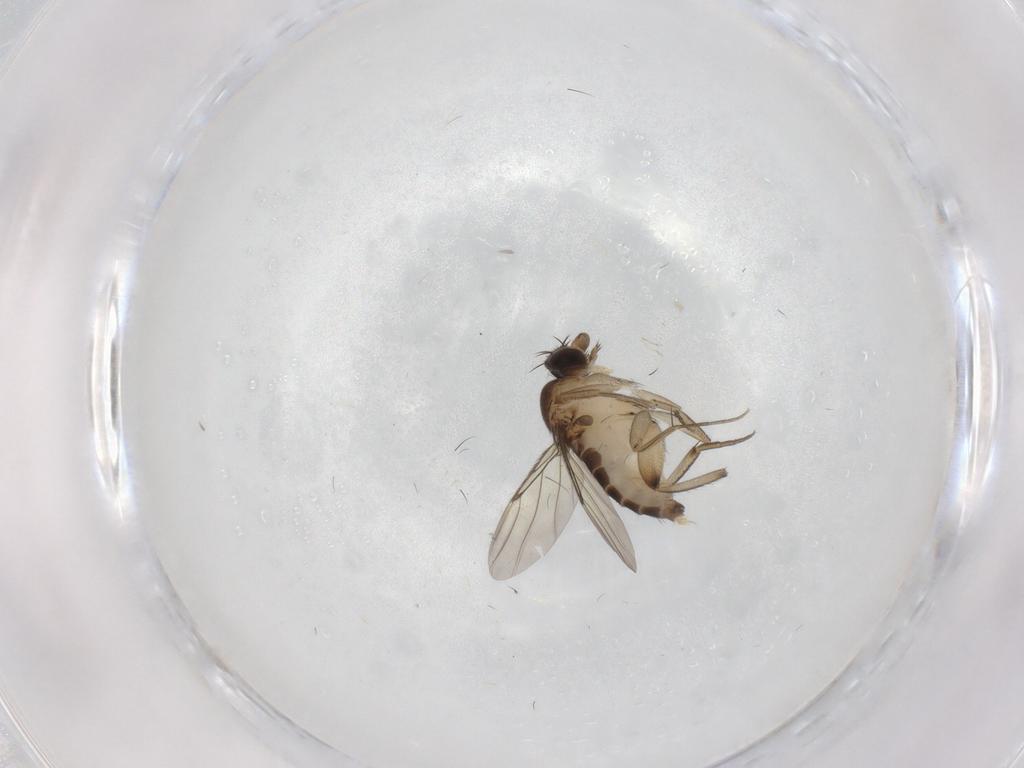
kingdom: Animalia
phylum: Arthropoda
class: Insecta
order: Diptera
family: Phoridae
